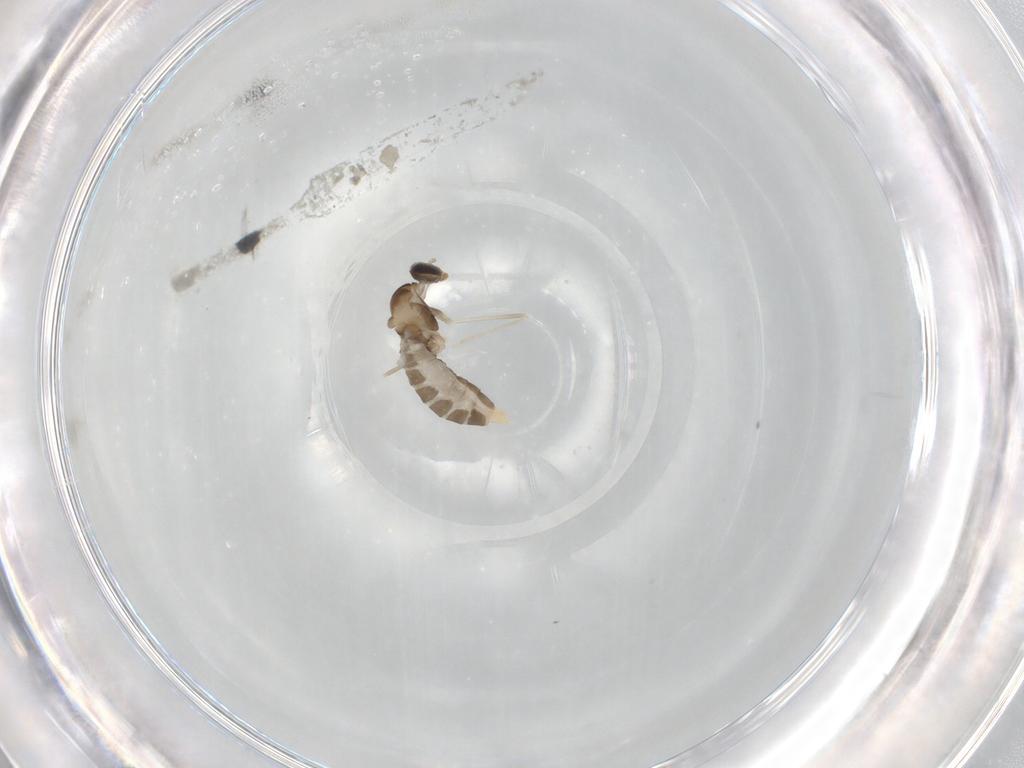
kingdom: Animalia
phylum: Arthropoda
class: Insecta
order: Diptera
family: Cecidomyiidae
